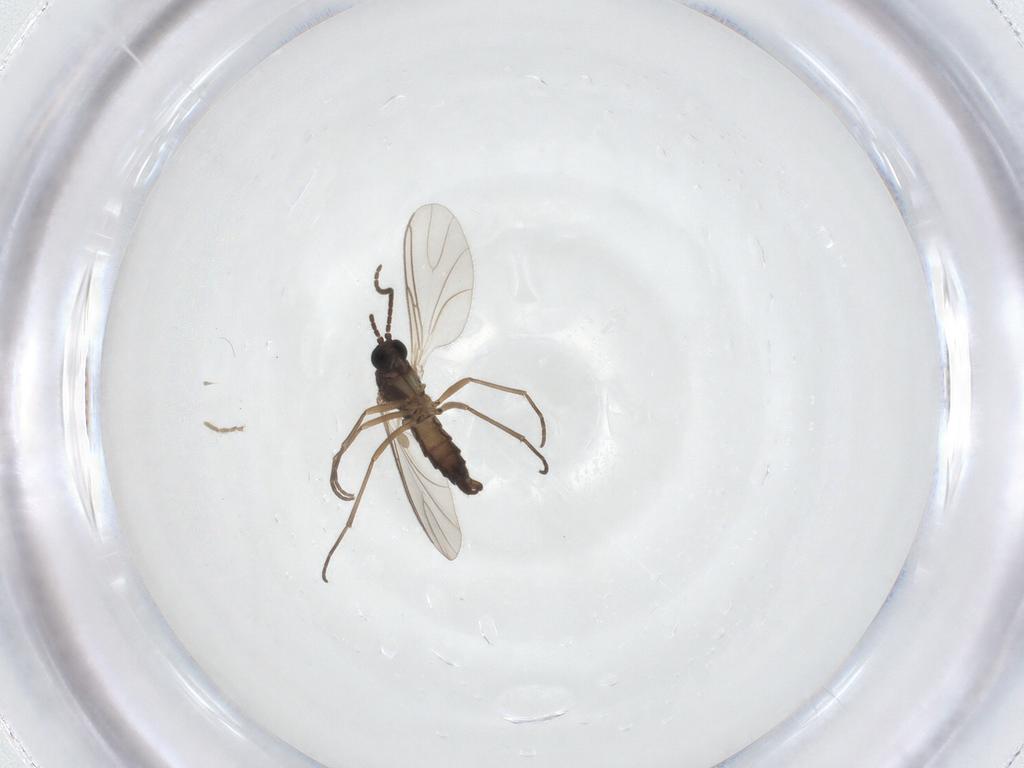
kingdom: Animalia
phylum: Arthropoda
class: Insecta
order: Diptera
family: Sciaridae
